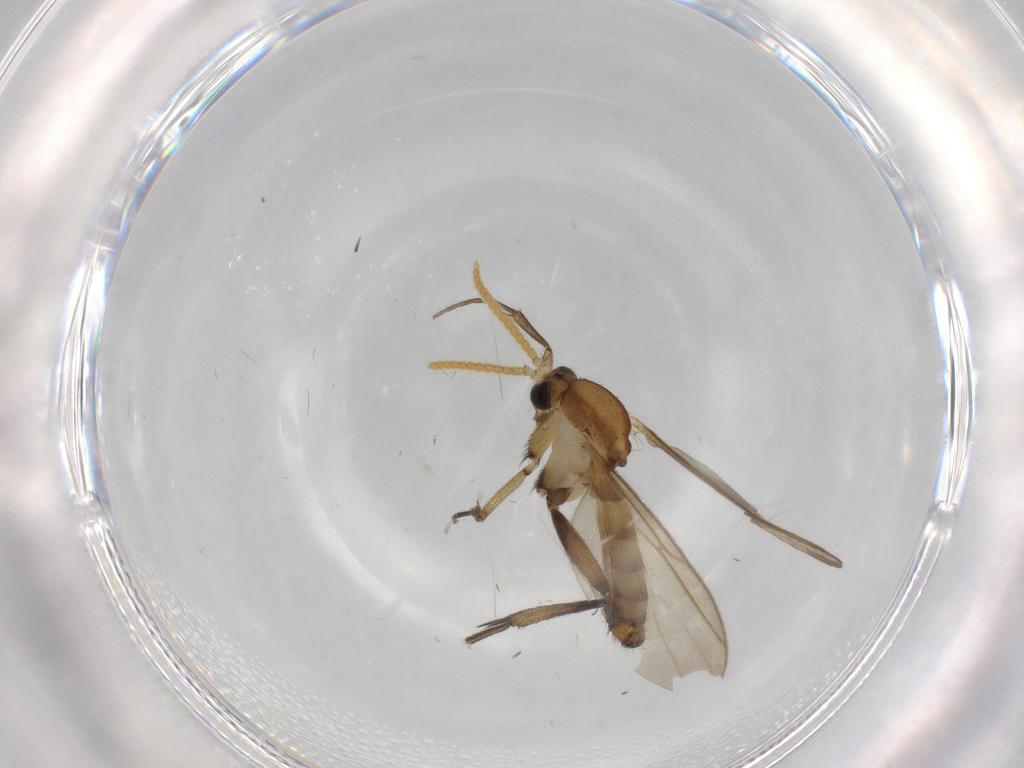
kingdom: Animalia
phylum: Arthropoda
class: Insecta
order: Diptera
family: Sciaridae
